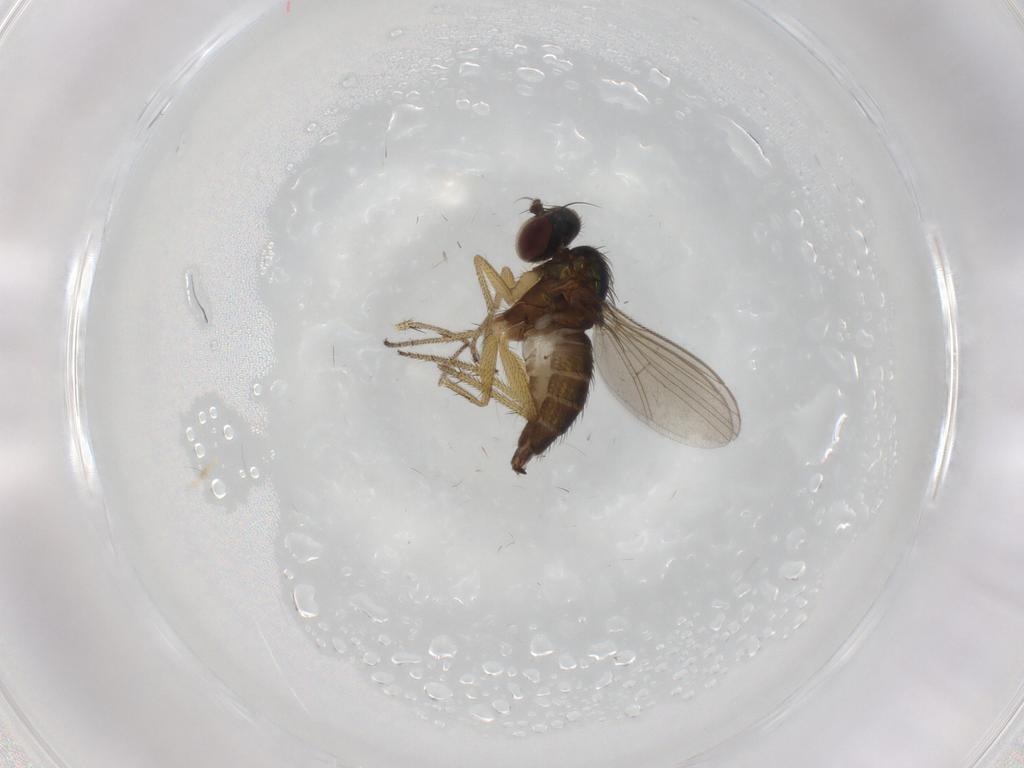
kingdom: Animalia
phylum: Arthropoda
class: Insecta
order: Diptera
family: Dolichopodidae
